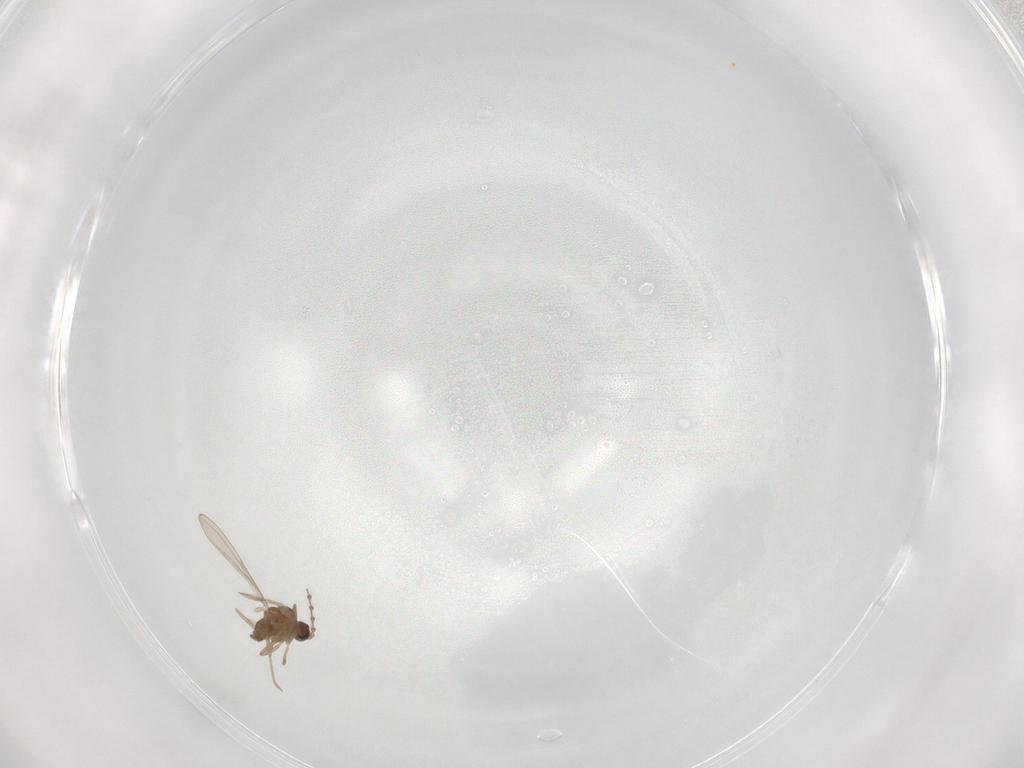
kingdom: Animalia
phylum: Arthropoda
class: Insecta
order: Diptera
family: Cecidomyiidae
